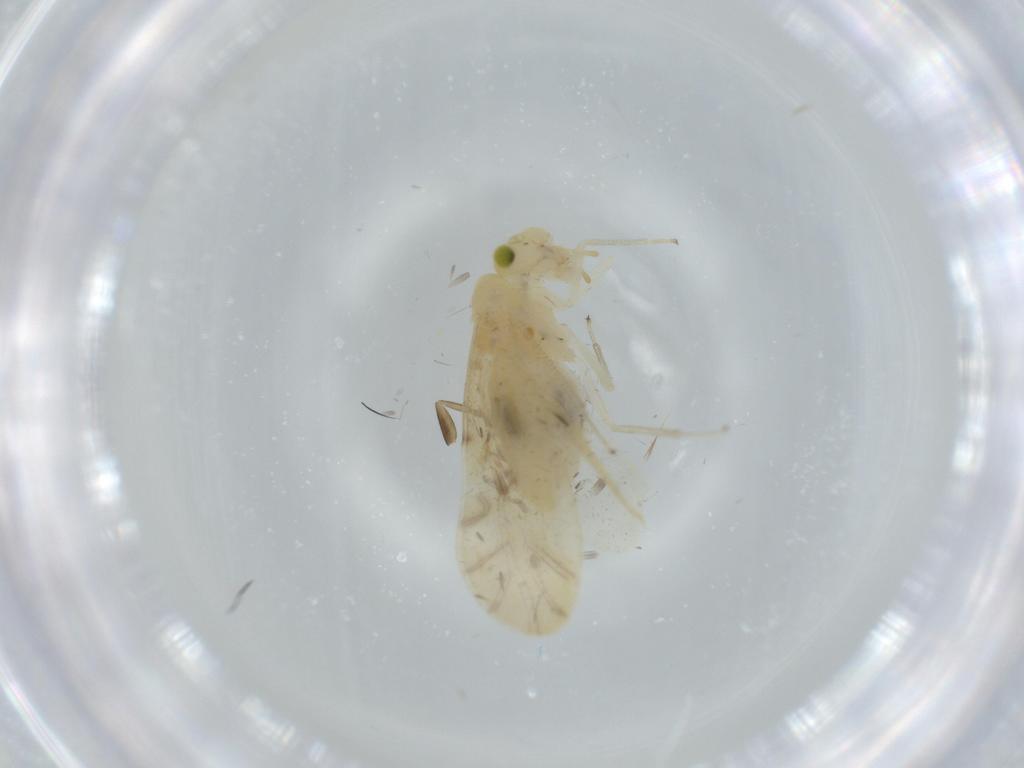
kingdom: Animalia
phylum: Arthropoda
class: Insecta
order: Psocodea
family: Caeciliusidae
